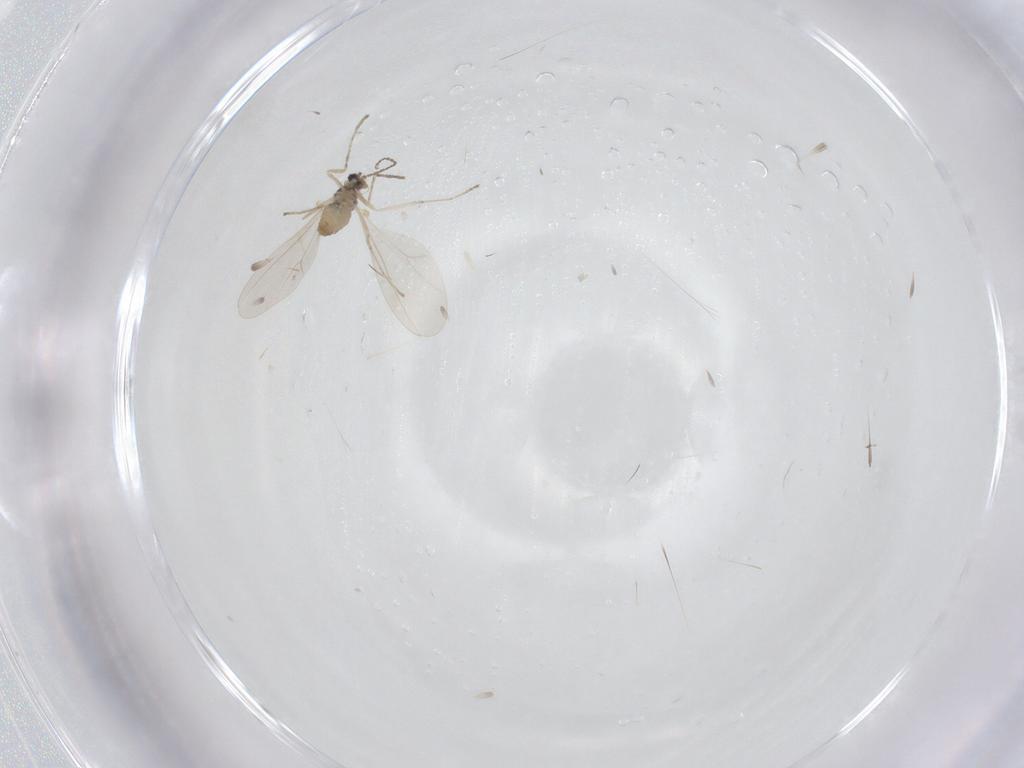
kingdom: Animalia
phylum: Arthropoda
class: Insecta
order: Diptera
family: Cecidomyiidae
